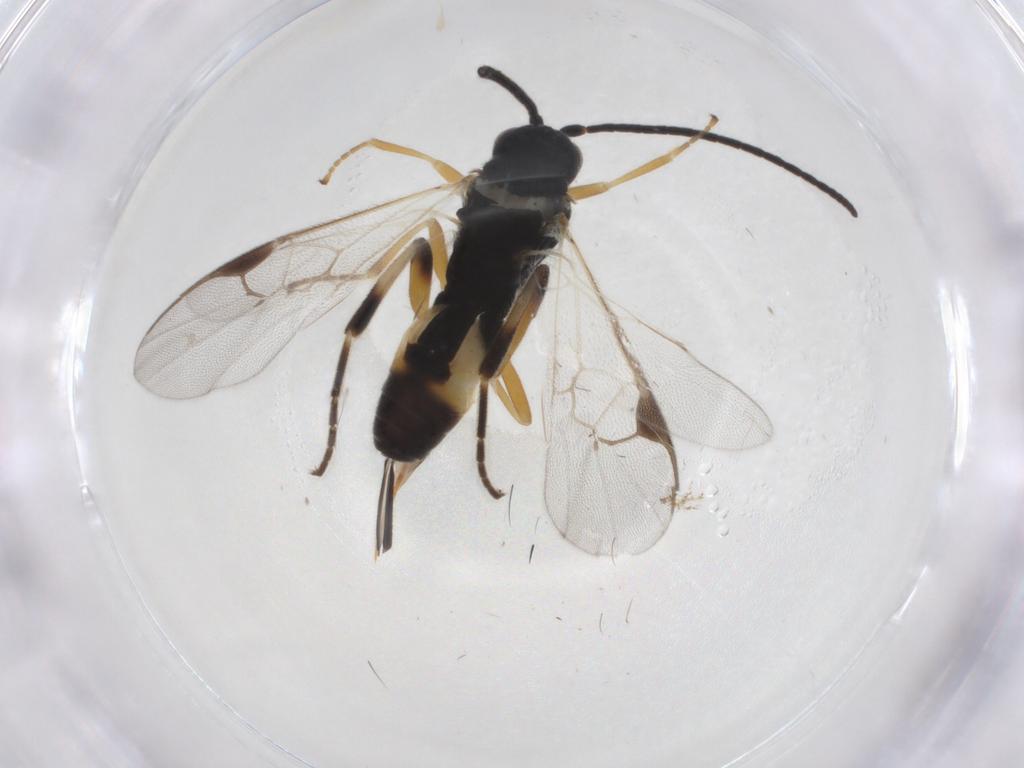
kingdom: Animalia
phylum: Arthropoda
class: Insecta
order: Hymenoptera
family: Braconidae
